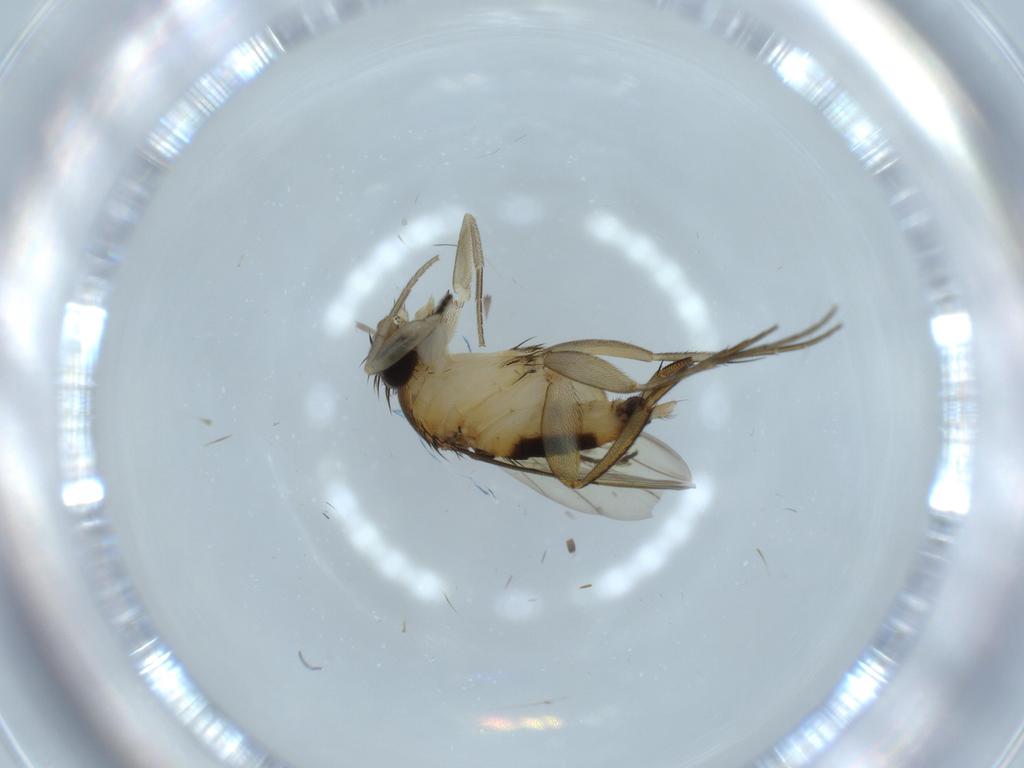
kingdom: Animalia
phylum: Arthropoda
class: Insecta
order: Diptera
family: Sciaridae
